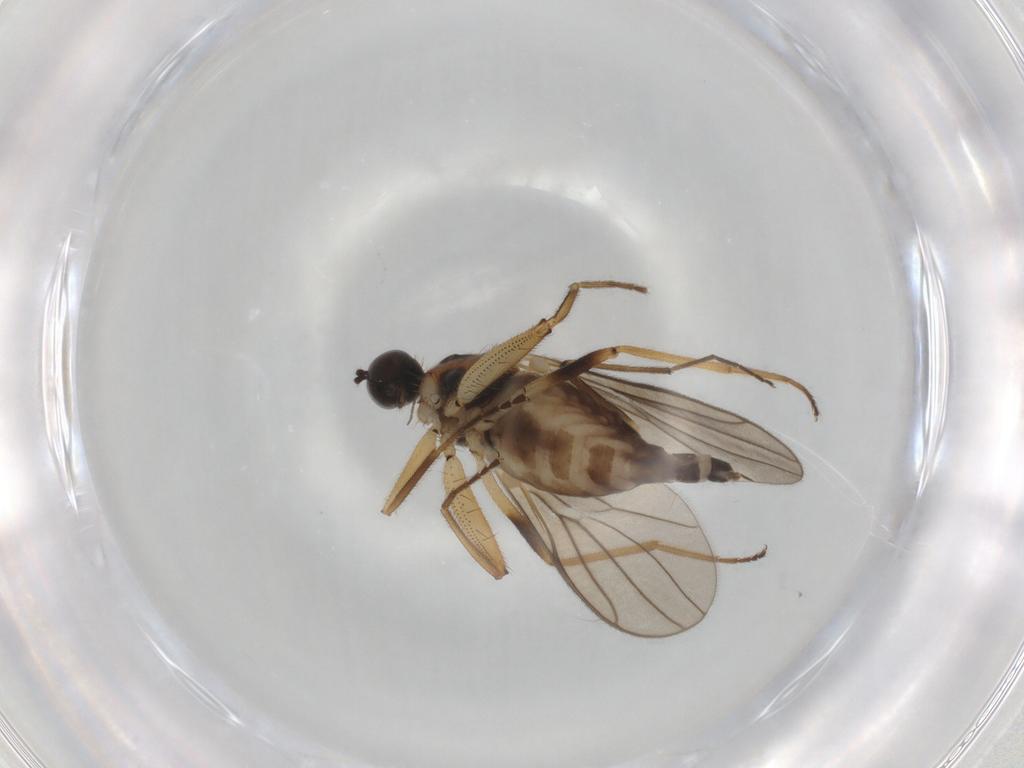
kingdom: Animalia
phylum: Arthropoda
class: Insecta
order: Diptera
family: Hybotidae
